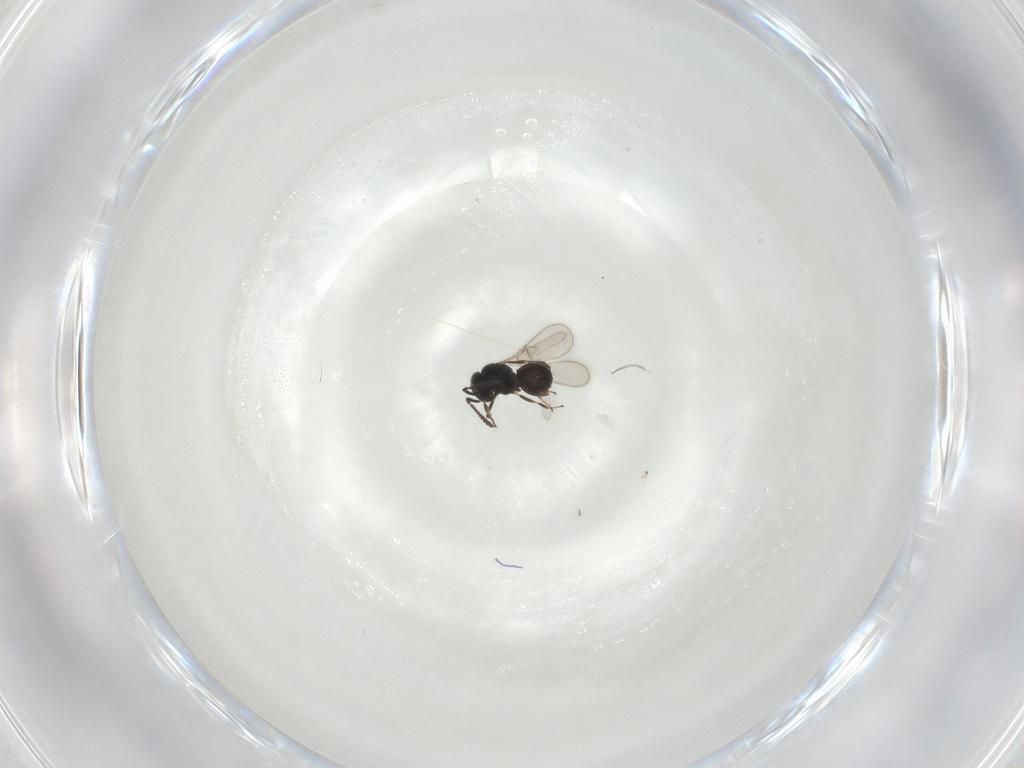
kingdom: Animalia
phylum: Arthropoda
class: Insecta
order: Hymenoptera
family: Scelionidae
